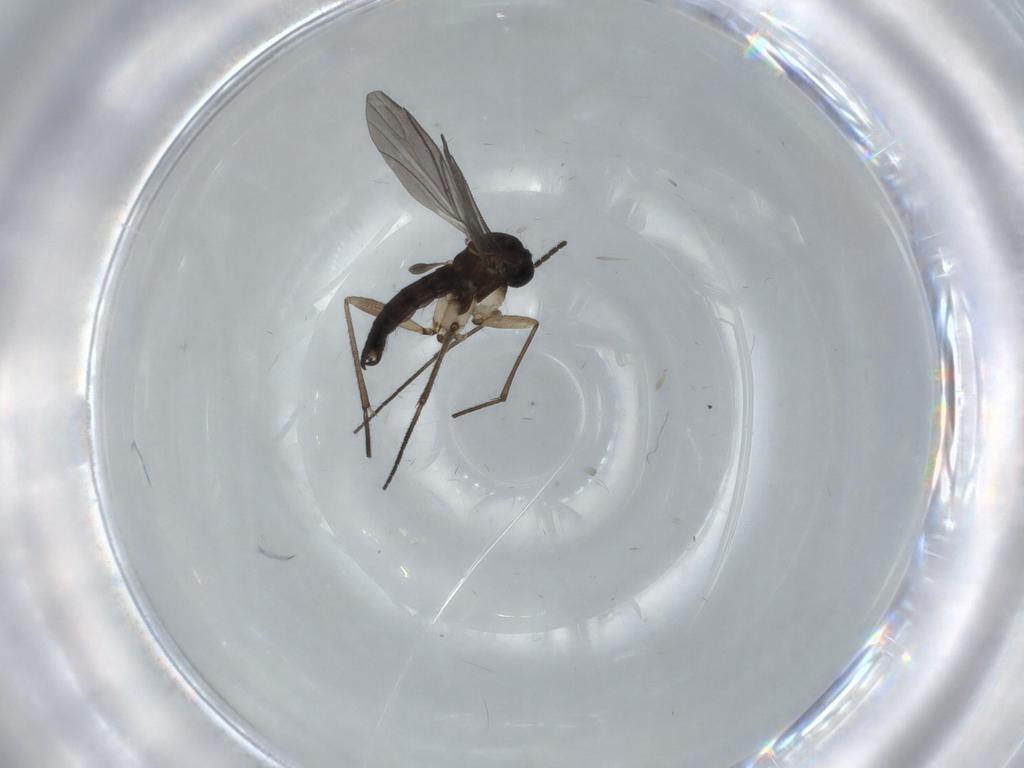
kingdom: Animalia
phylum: Arthropoda
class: Insecta
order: Diptera
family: Sciaridae
